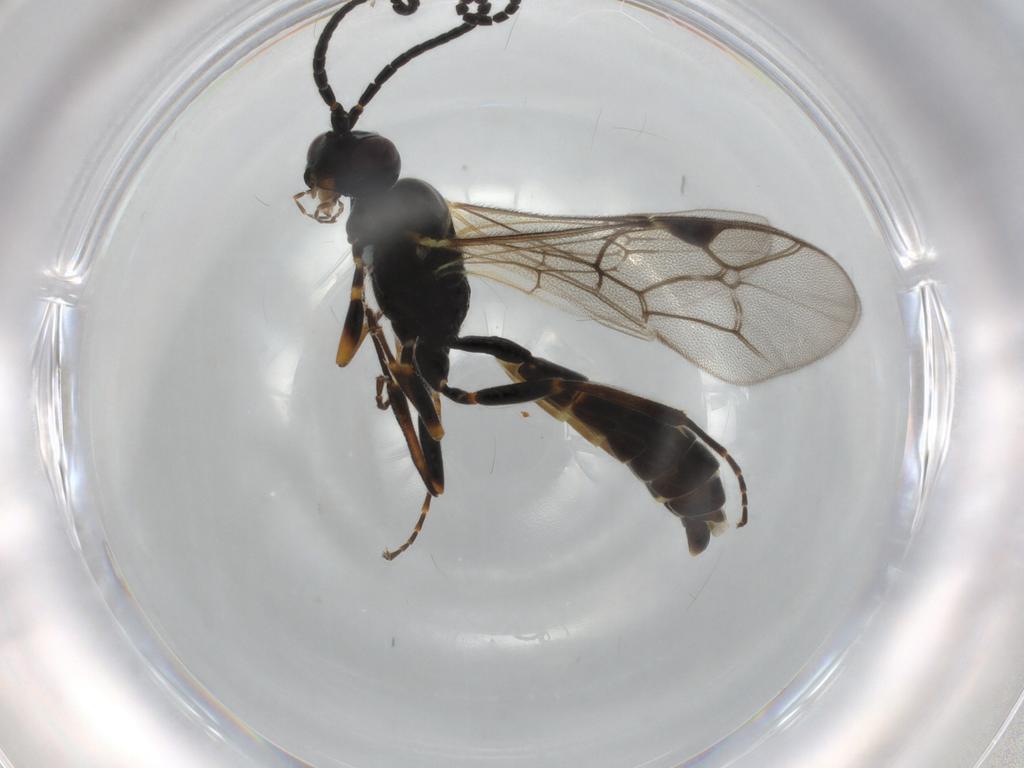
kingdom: Animalia
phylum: Arthropoda
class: Insecta
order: Hymenoptera
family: Ichneumonidae
